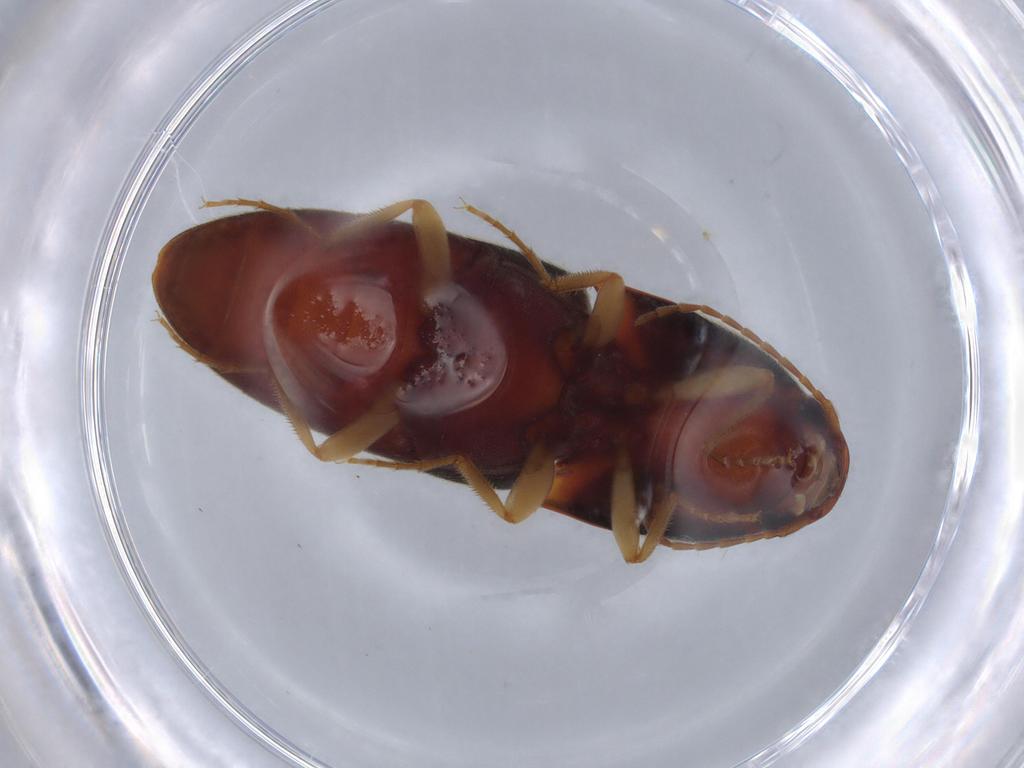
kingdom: Animalia
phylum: Arthropoda
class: Insecta
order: Coleoptera
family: Elateridae
